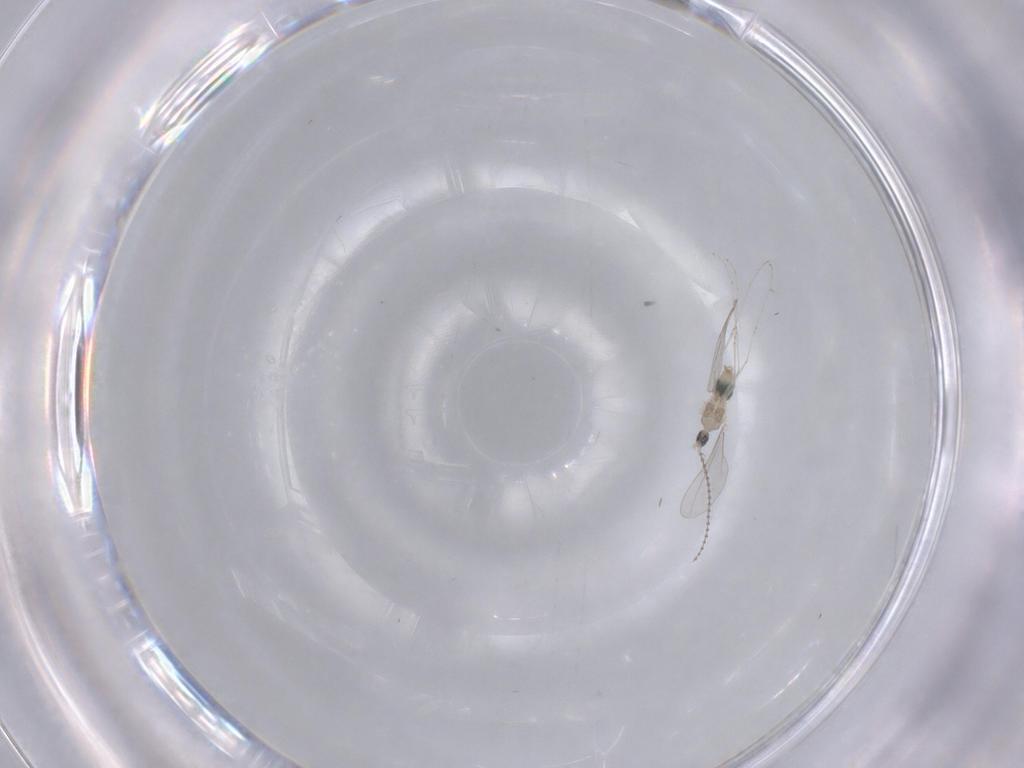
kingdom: Animalia
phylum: Arthropoda
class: Insecta
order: Diptera
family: Cecidomyiidae
